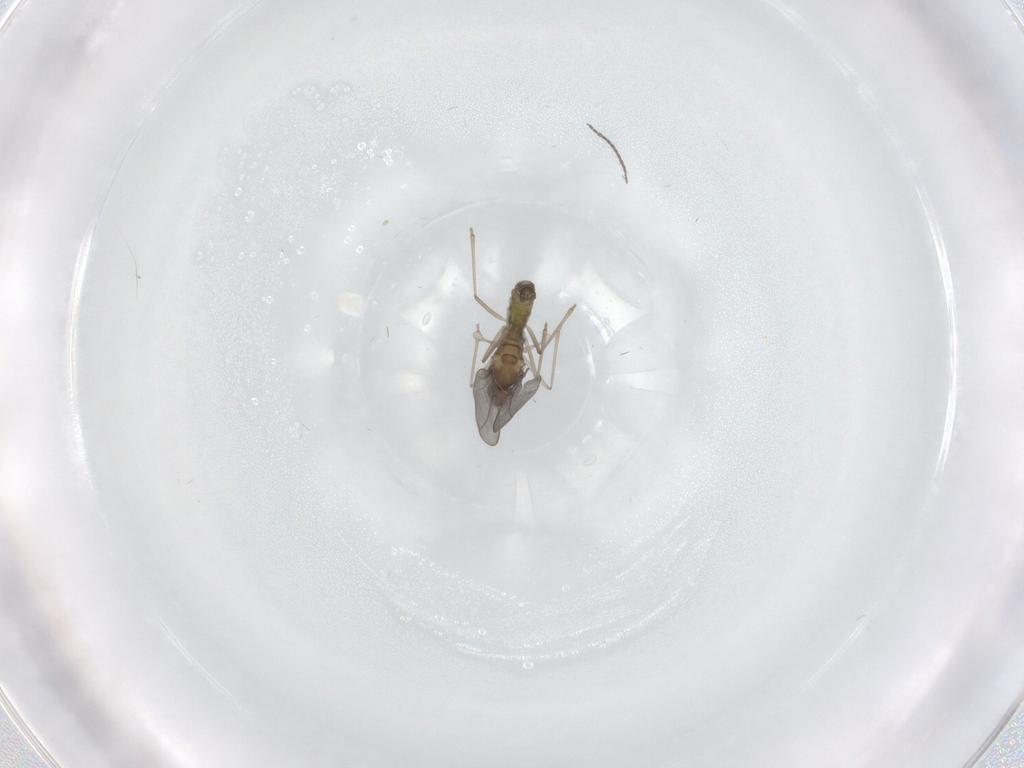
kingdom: Animalia
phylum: Arthropoda
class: Insecta
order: Diptera
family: Cecidomyiidae
